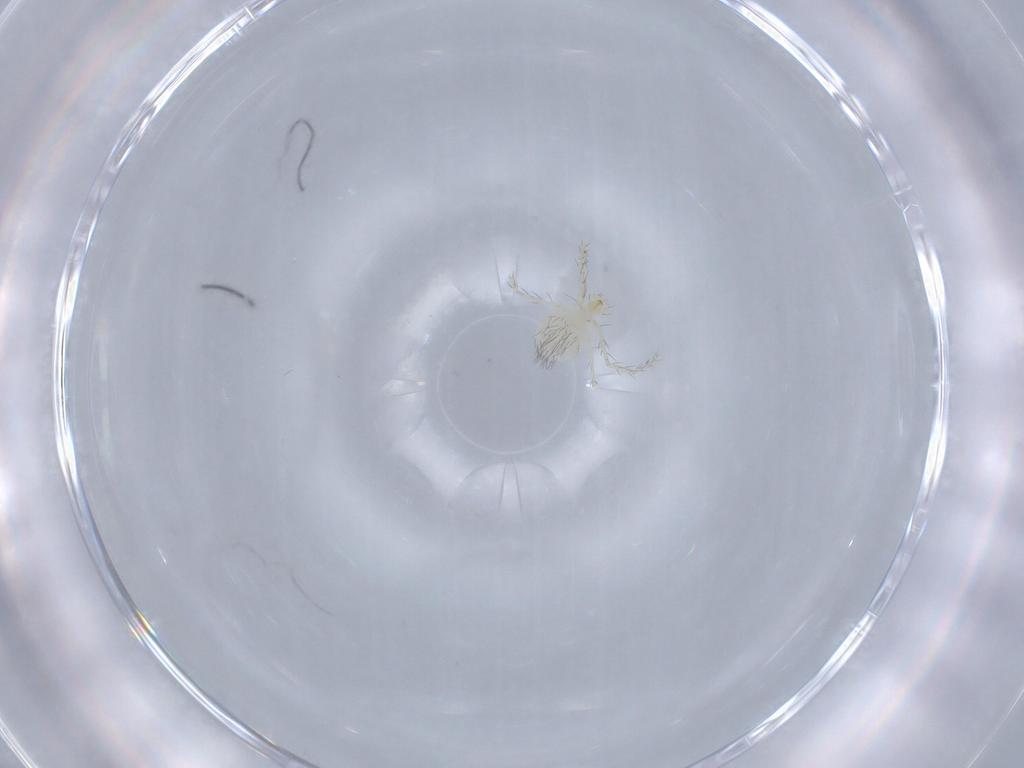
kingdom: Animalia
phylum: Arthropoda
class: Arachnida
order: Trombidiformes
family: Erythraeidae
